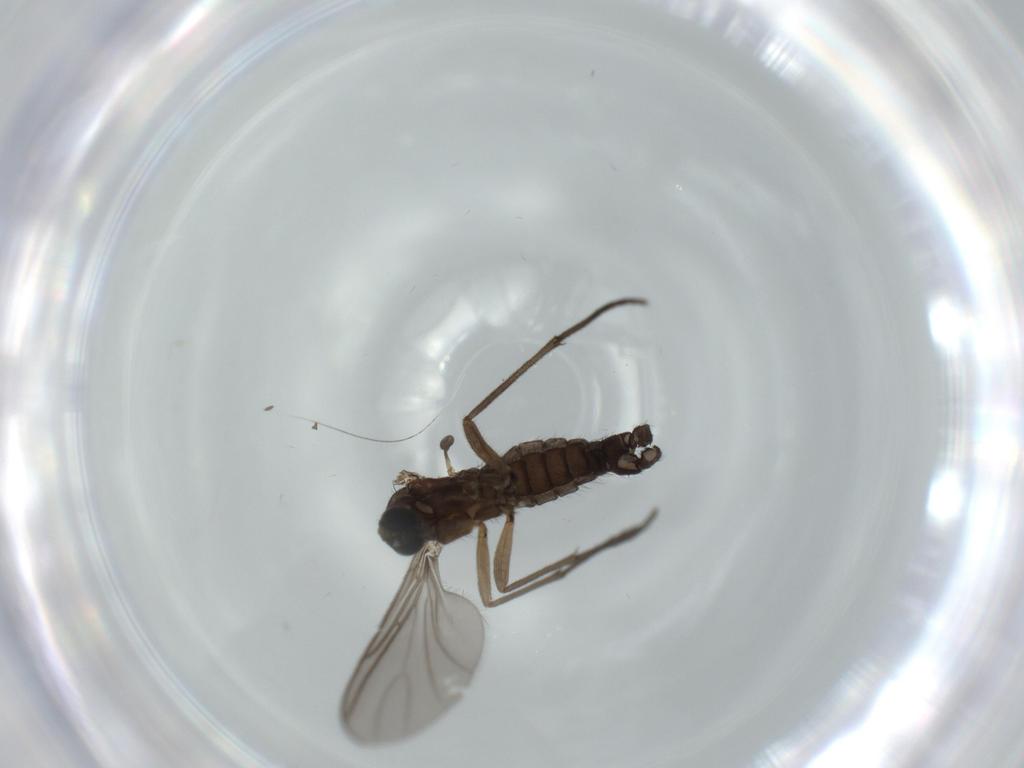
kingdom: Animalia
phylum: Arthropoda
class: Insecta
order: Diptera
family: Sciaridae
